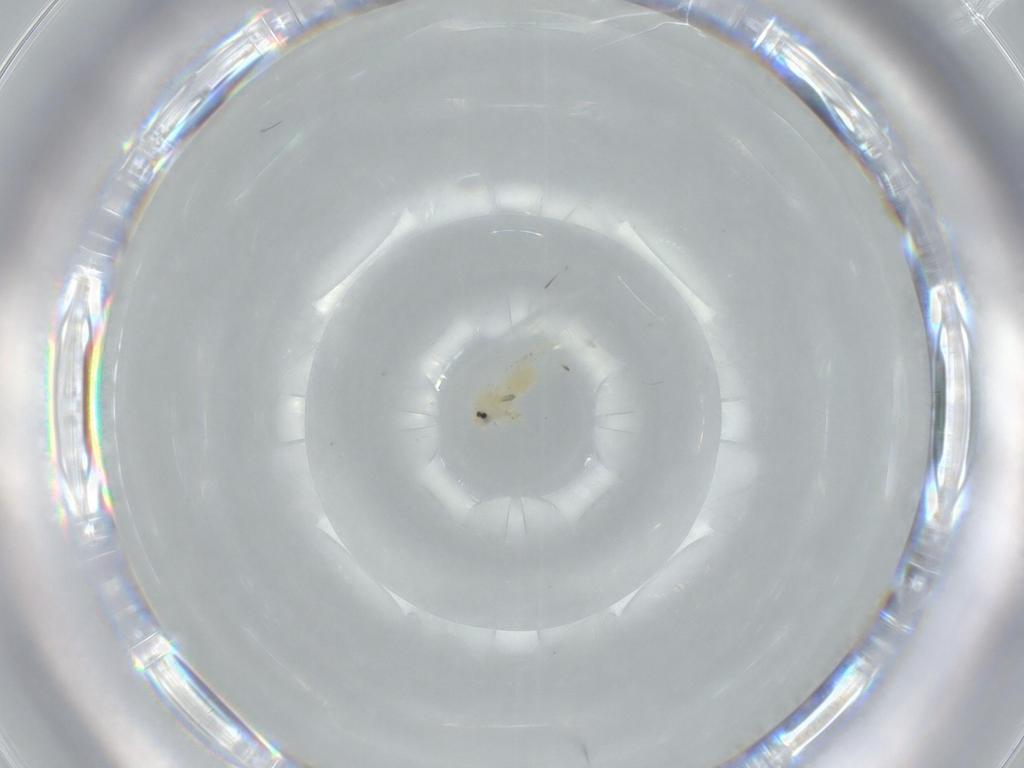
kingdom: Animalia
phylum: Arthropoda
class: Insecta
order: Hemiptera
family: Aleyrodidae
